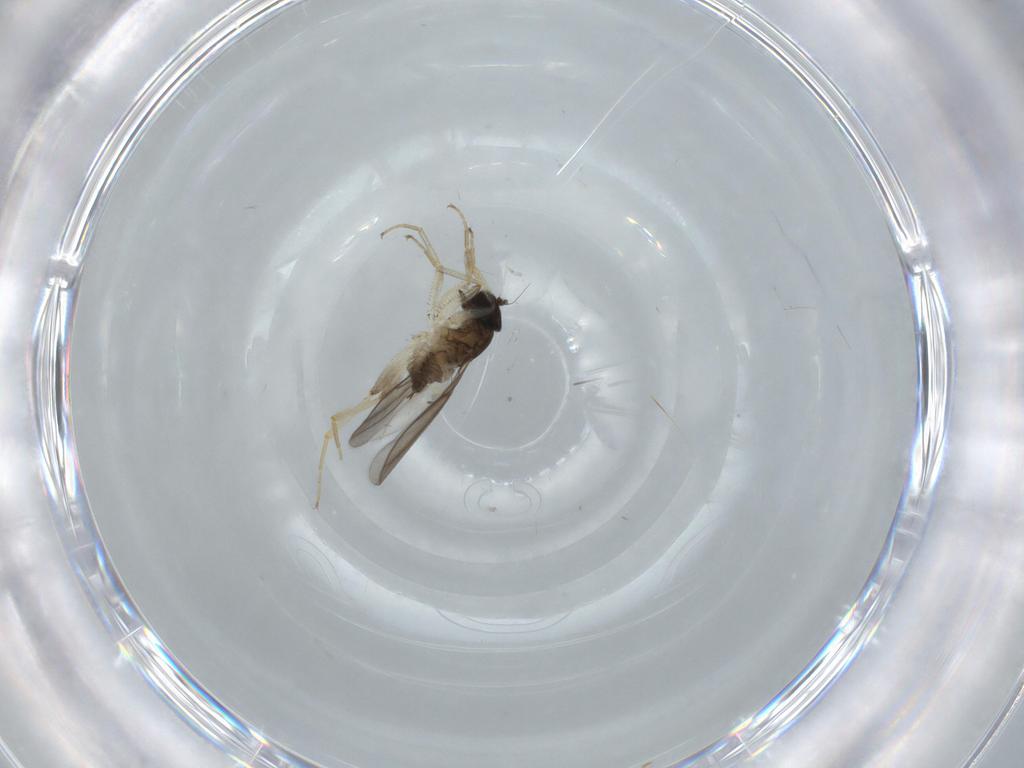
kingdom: Animalia
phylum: Arthropoda
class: Insecta
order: Diptera
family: Hybotidae
